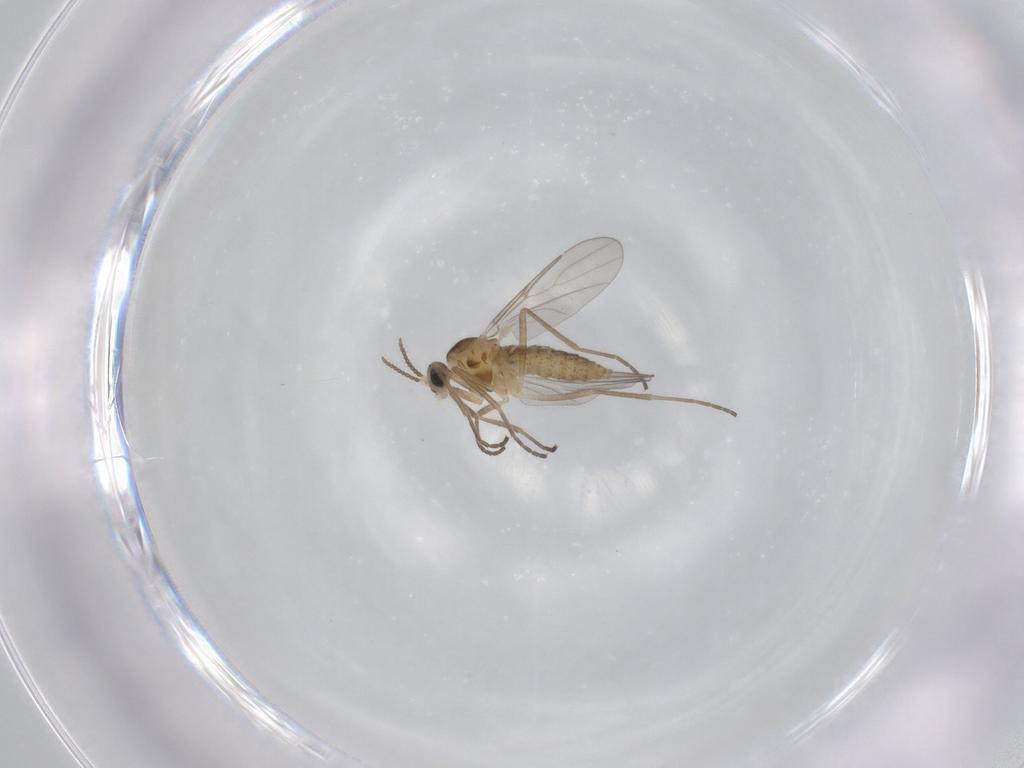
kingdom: Animalia
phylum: Arthropoda
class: Insecta
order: Diptera
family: Cecidomyiidae
